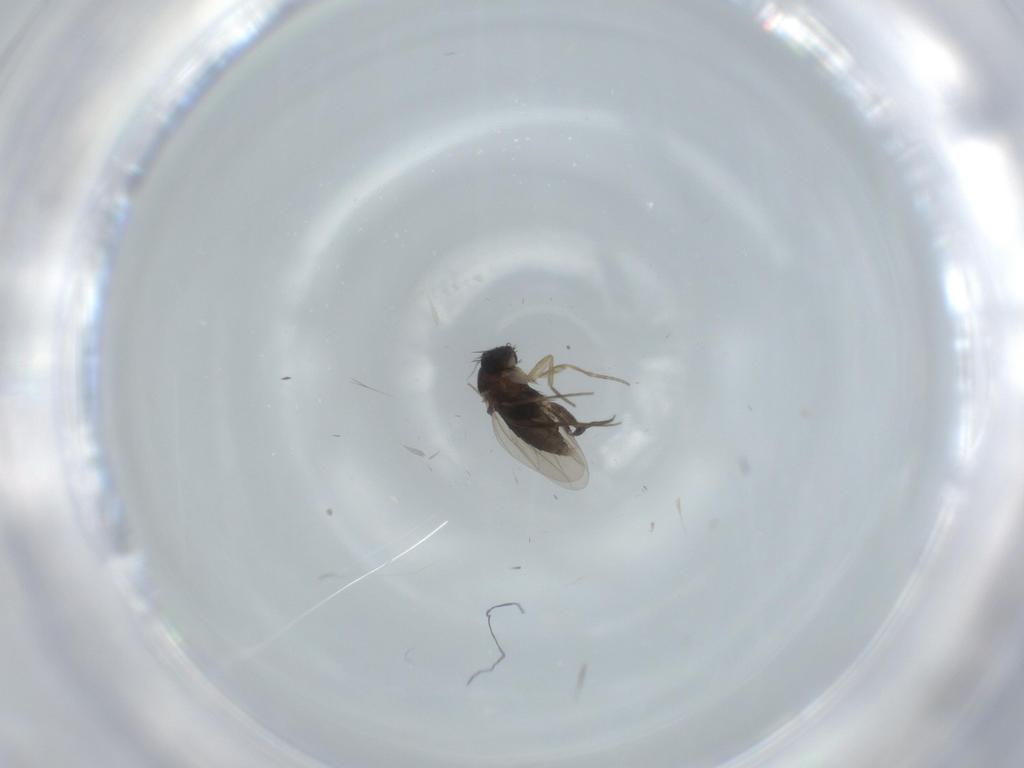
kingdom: Animalia
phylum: Arthropoda
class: Insecta
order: Diptera
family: Phoridae
